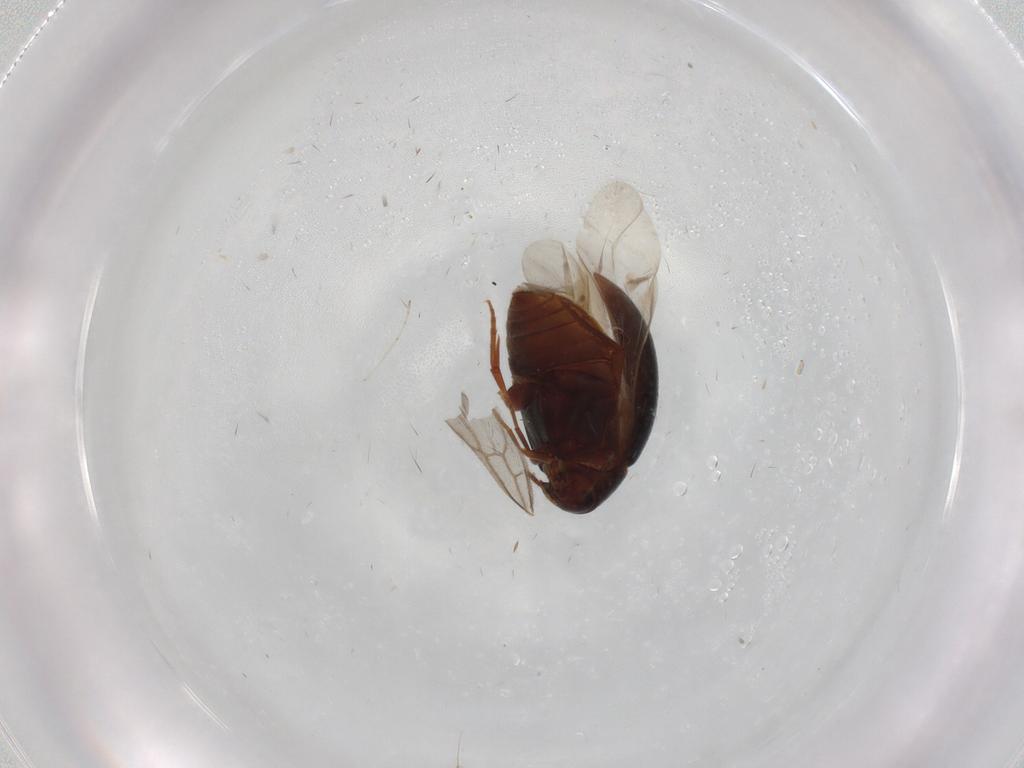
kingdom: Animalia
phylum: Arthropoda
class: Insecta
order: Coleoptera
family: Melandryidae
